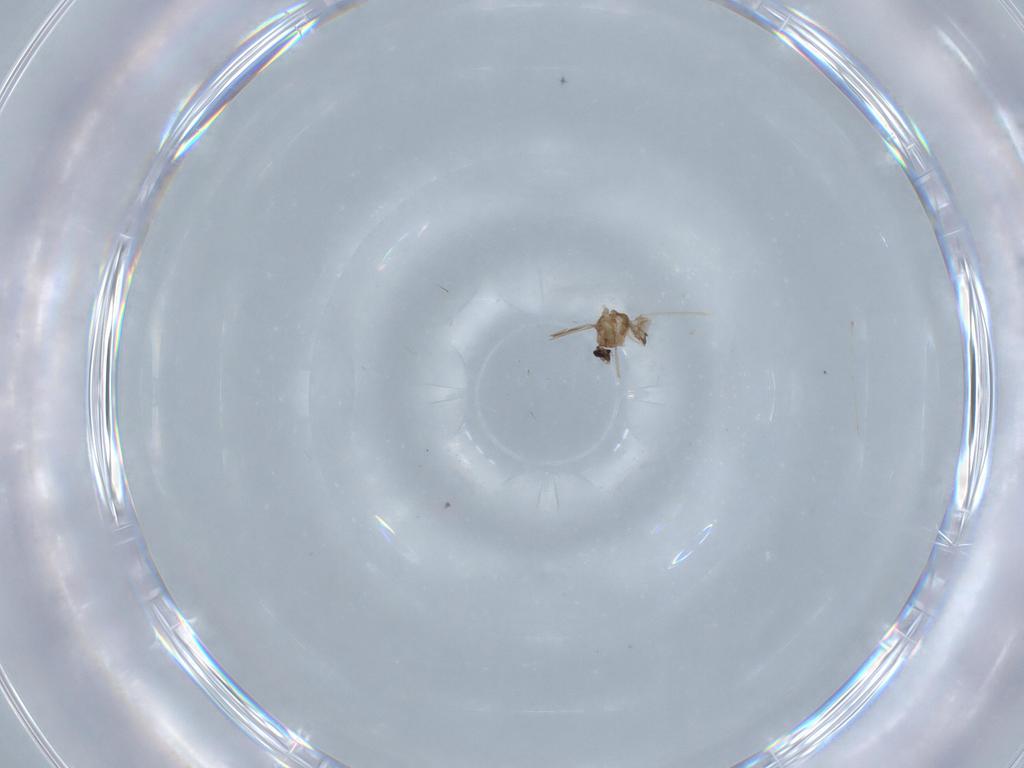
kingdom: Animalia
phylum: Arthropoda
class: Insecta
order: Diptera
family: Cecidomyiidae
